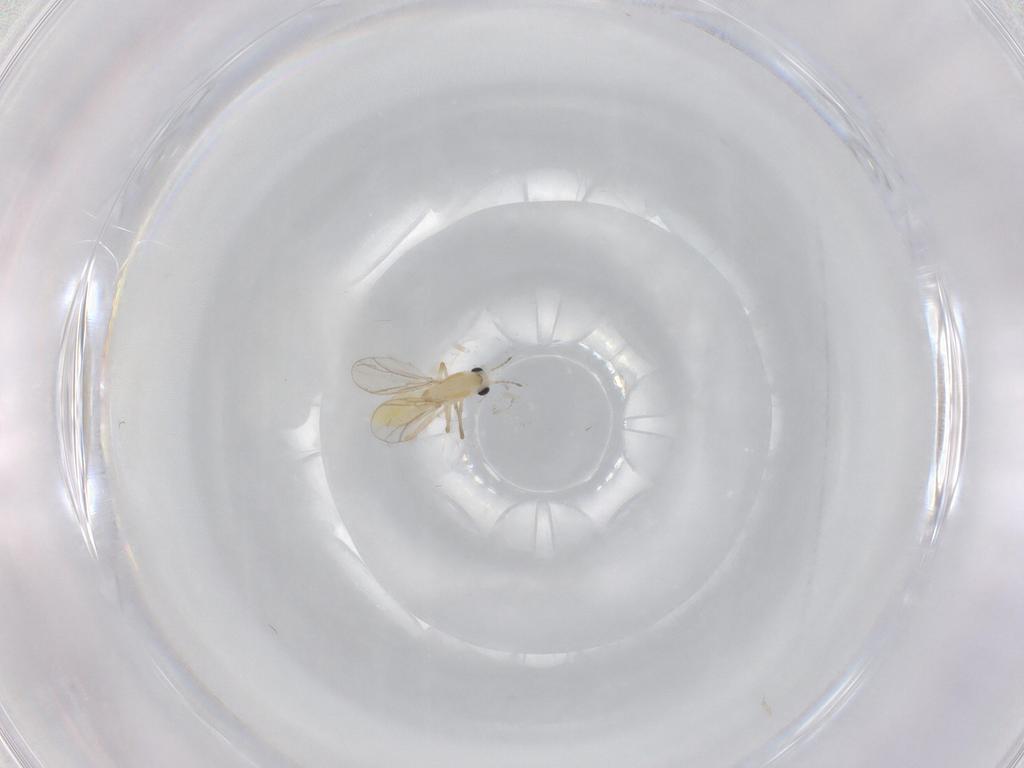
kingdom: Animalia
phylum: Arthropoda
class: Insecta
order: Diptera
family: Chironomidae
